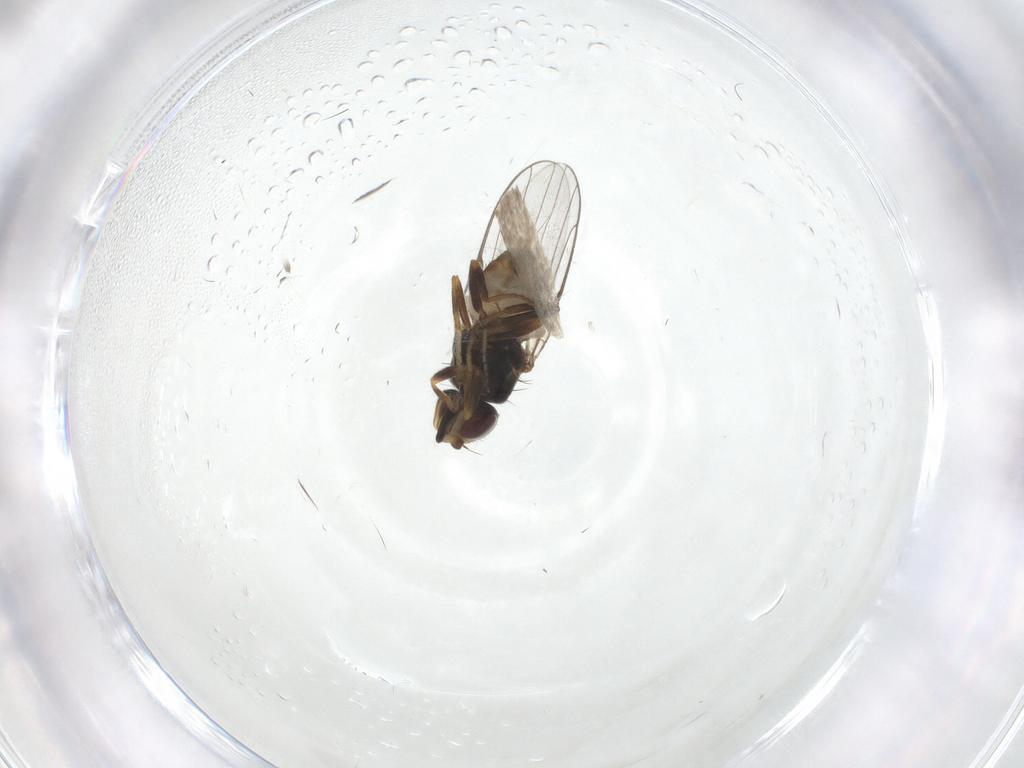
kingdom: Animalia
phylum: Arthropoda
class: Insecta
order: Diptera
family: Chloropidae
